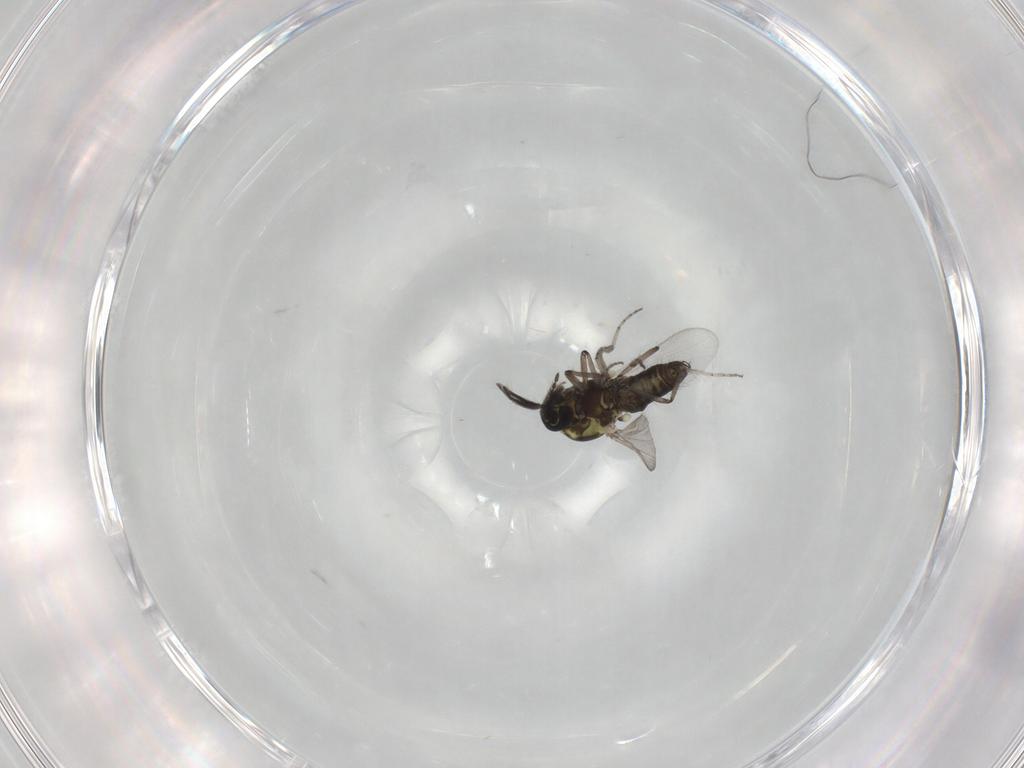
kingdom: Animalia
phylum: Arthropoda
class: Insecta
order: Diptera
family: Ceratopogonidae
